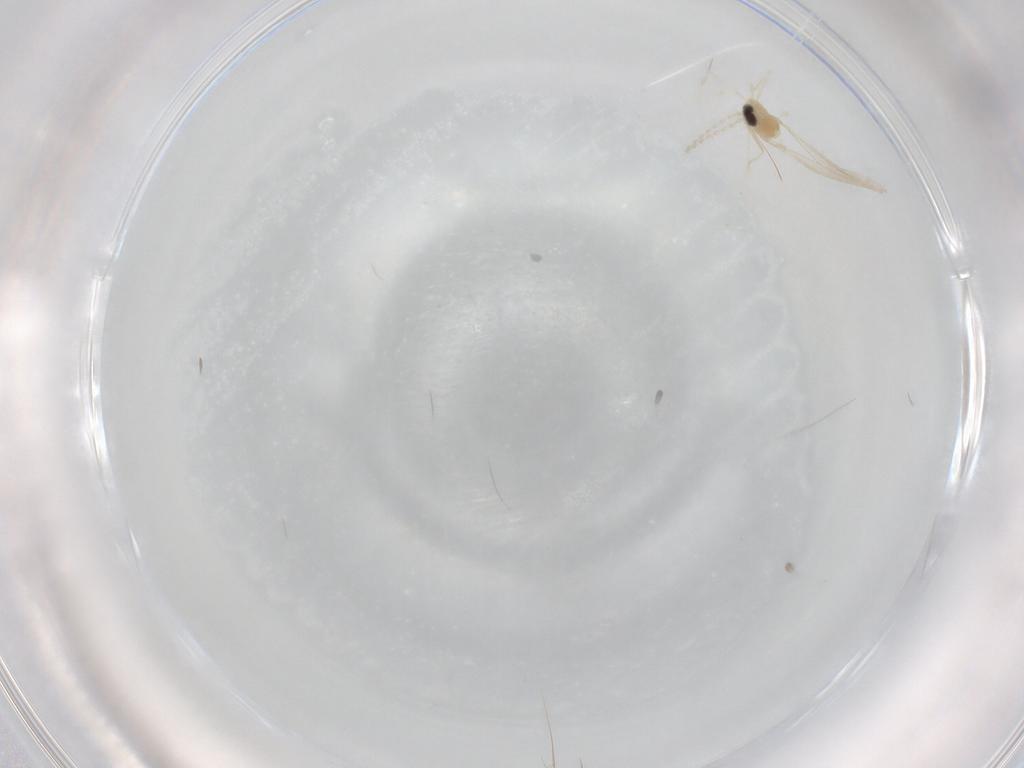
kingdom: Animalia
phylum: Arthropoda
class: Insecta
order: Diptera
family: Cecidomyiidae
